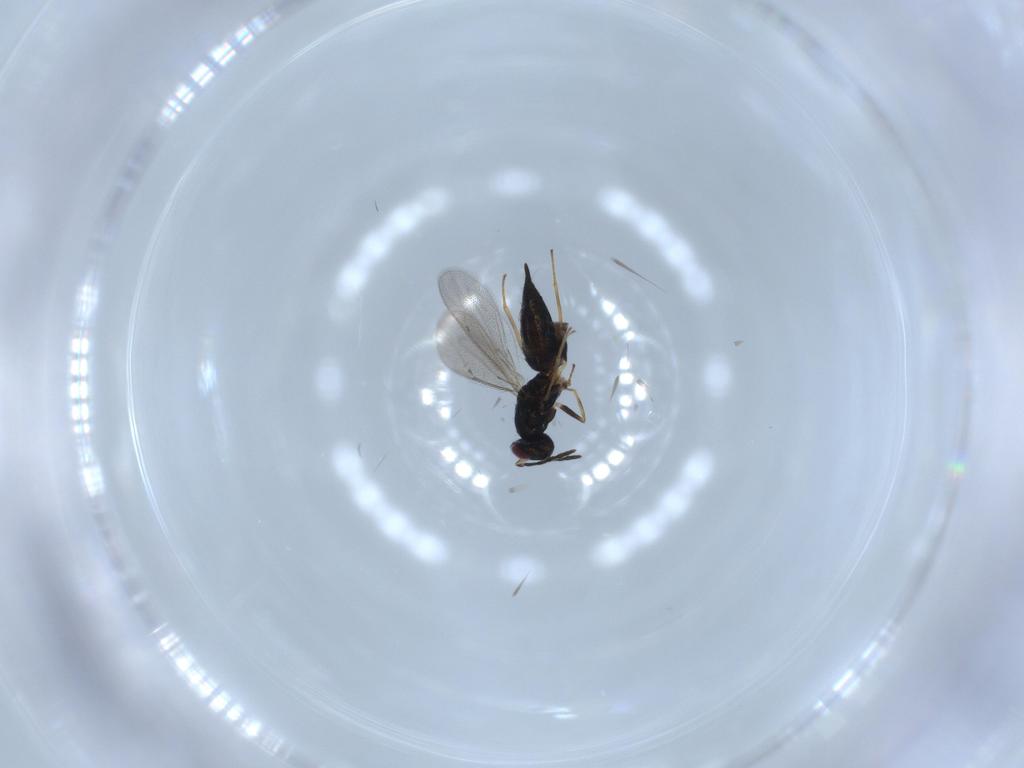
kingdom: Animalia
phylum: Arthropoda
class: Insecta
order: Hymenoptera
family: Eulophidae
